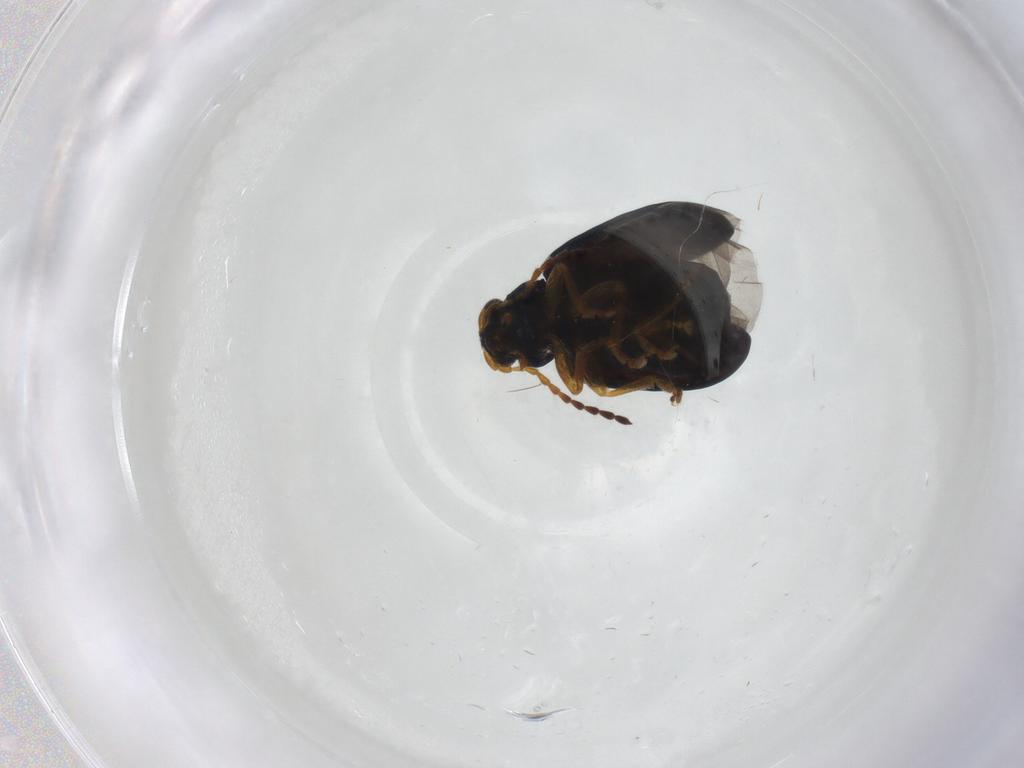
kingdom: Animalia
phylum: Arthropoda
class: Insecta
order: Coleoptera
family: Chrysomelidae
